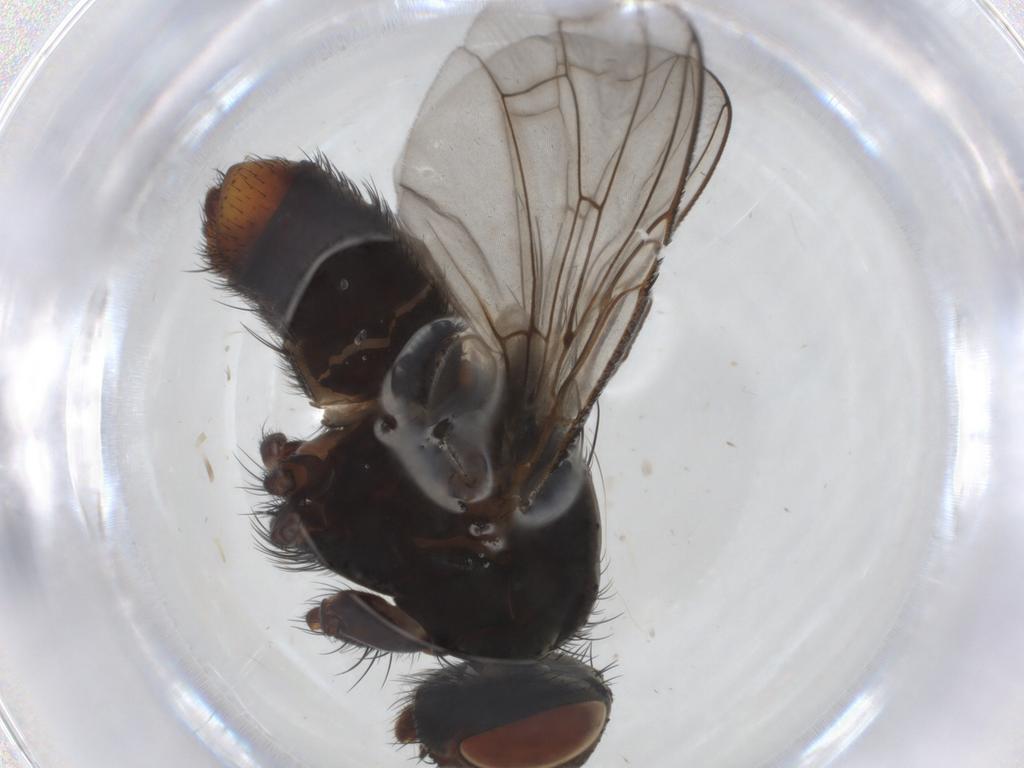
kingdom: Animalia
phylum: Arthropoda
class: Insecta
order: Diptera
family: Sarcophagidae
